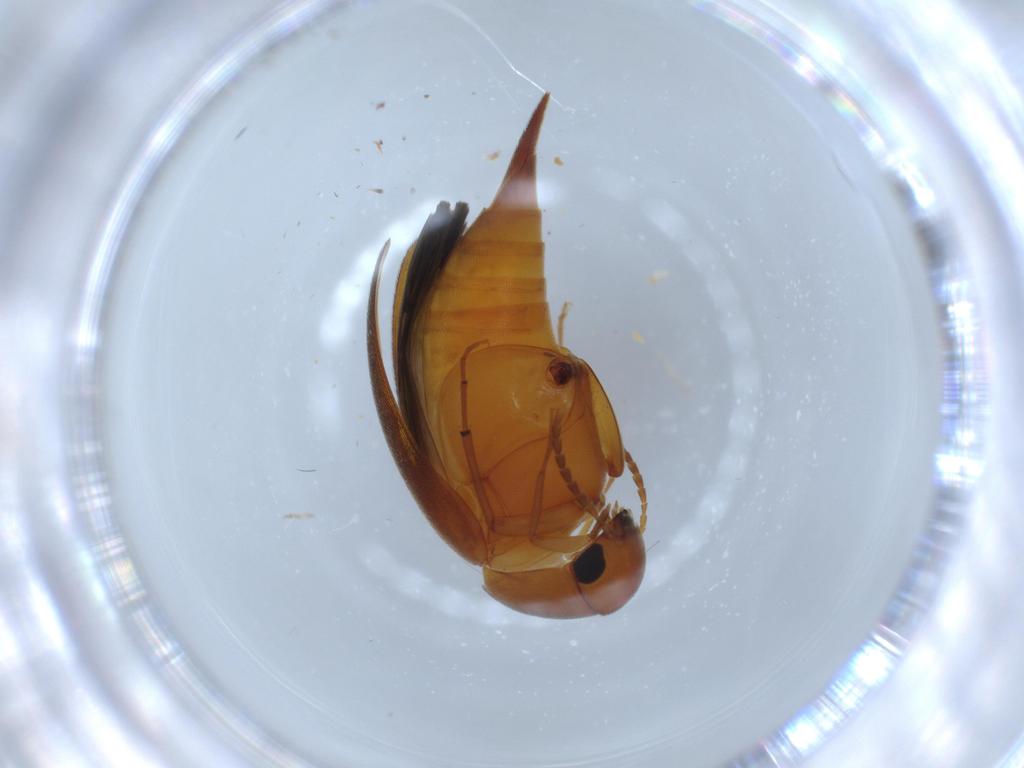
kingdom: Animalia
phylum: Arthropoda
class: Insecta
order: Coleoptera
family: Mordellidae
